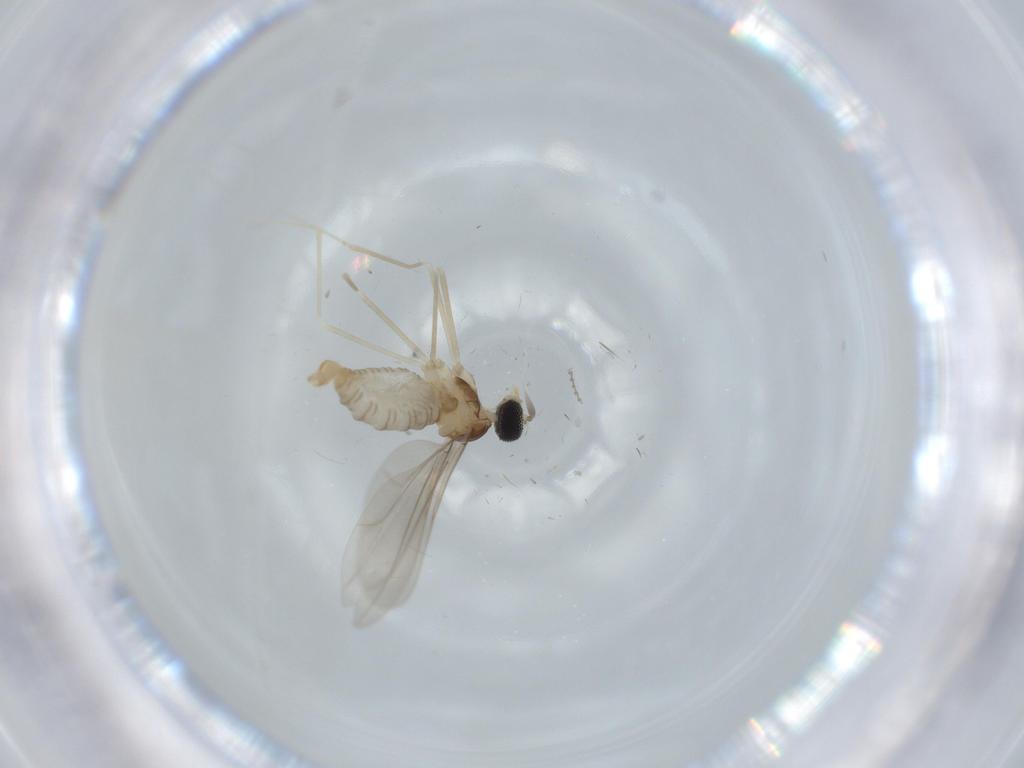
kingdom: Animalia
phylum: Arthropoda
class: Insecta
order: Diptera
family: Cecidomyiidae
